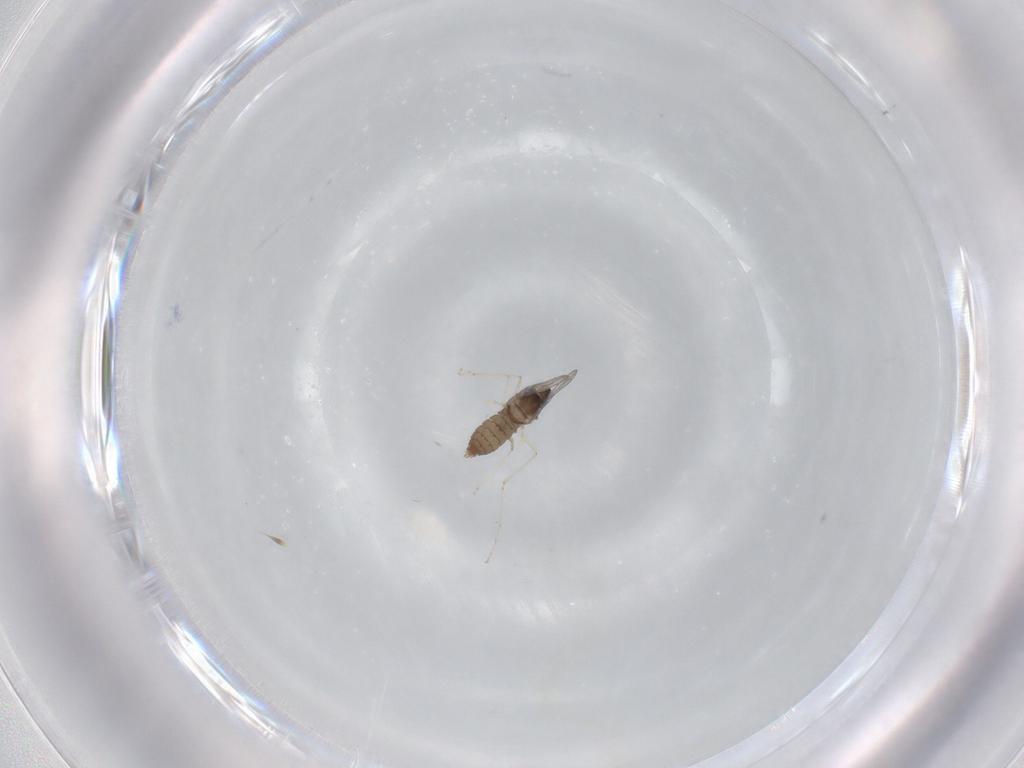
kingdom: Animalia
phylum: Arthropoda
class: Insecta
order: Diptera
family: Cecidomyiidae
